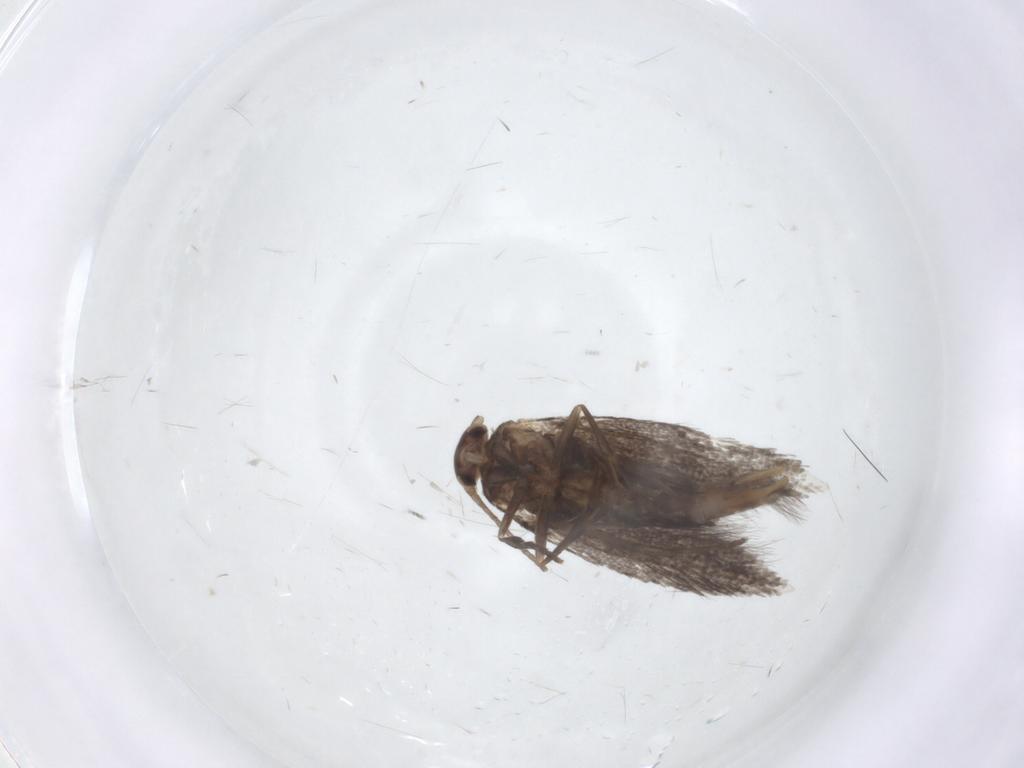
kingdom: Animalia
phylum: Arthropoda
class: Insecta
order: Lepidoptera
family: Elachistidae
